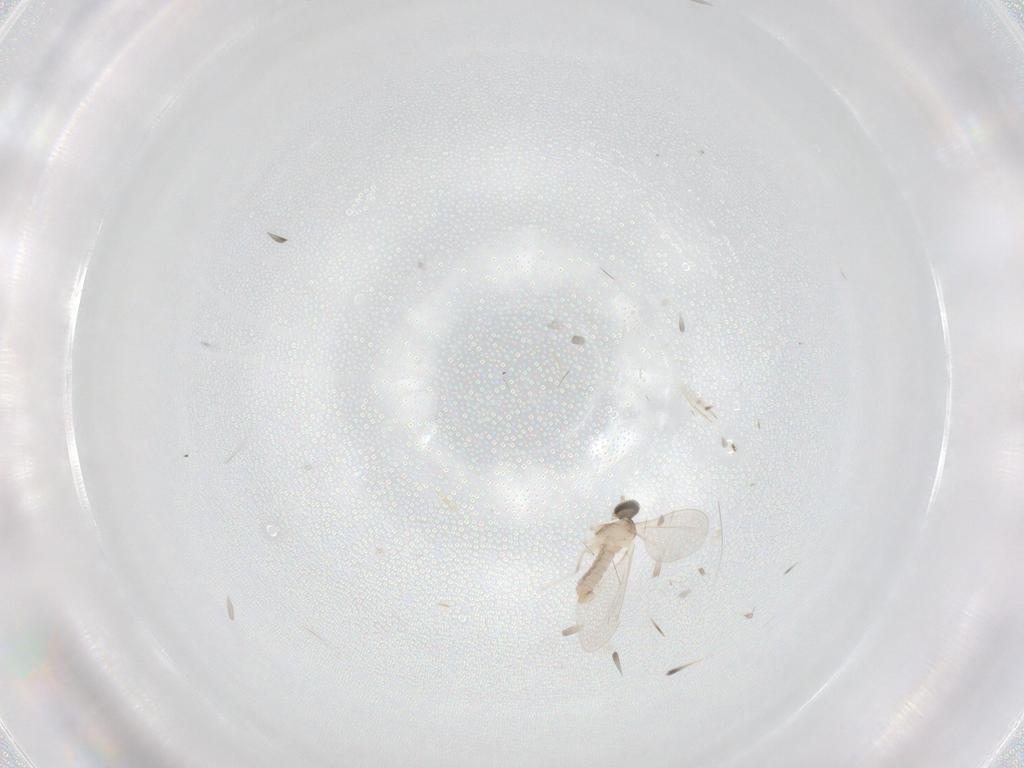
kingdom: Animalia
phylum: Arthropoda
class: Insecta
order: Diptera
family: Cecidomyiidae
